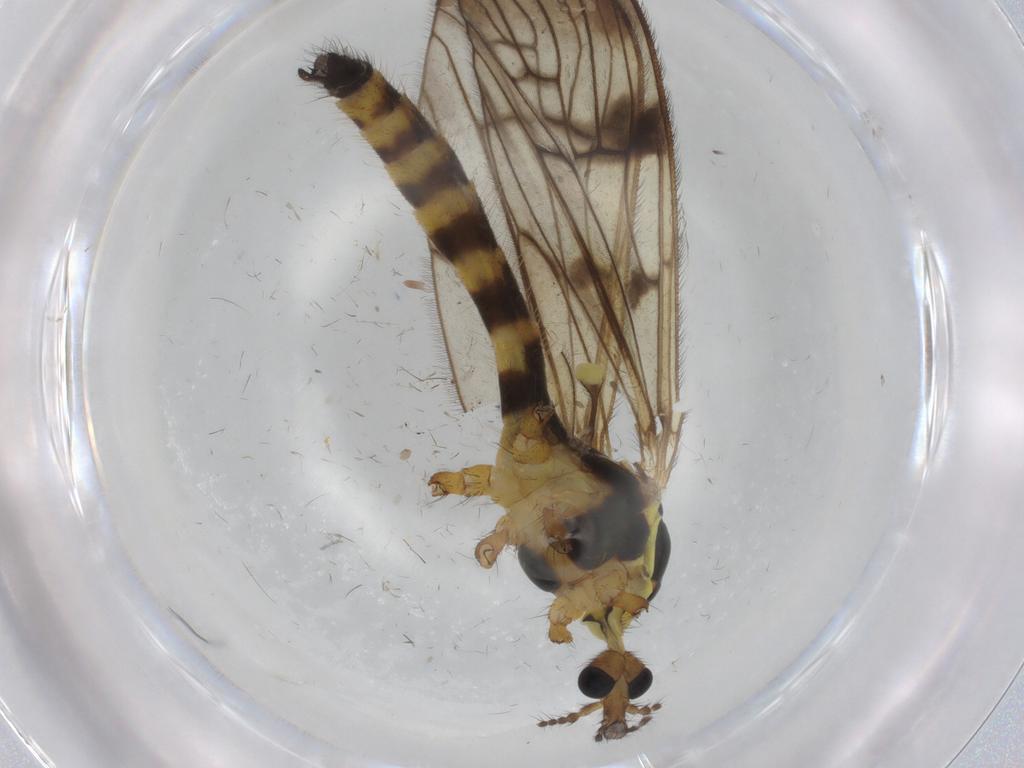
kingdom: Animalia
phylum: Arthropoda
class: Insecta
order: Diptera
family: Limoniidae
